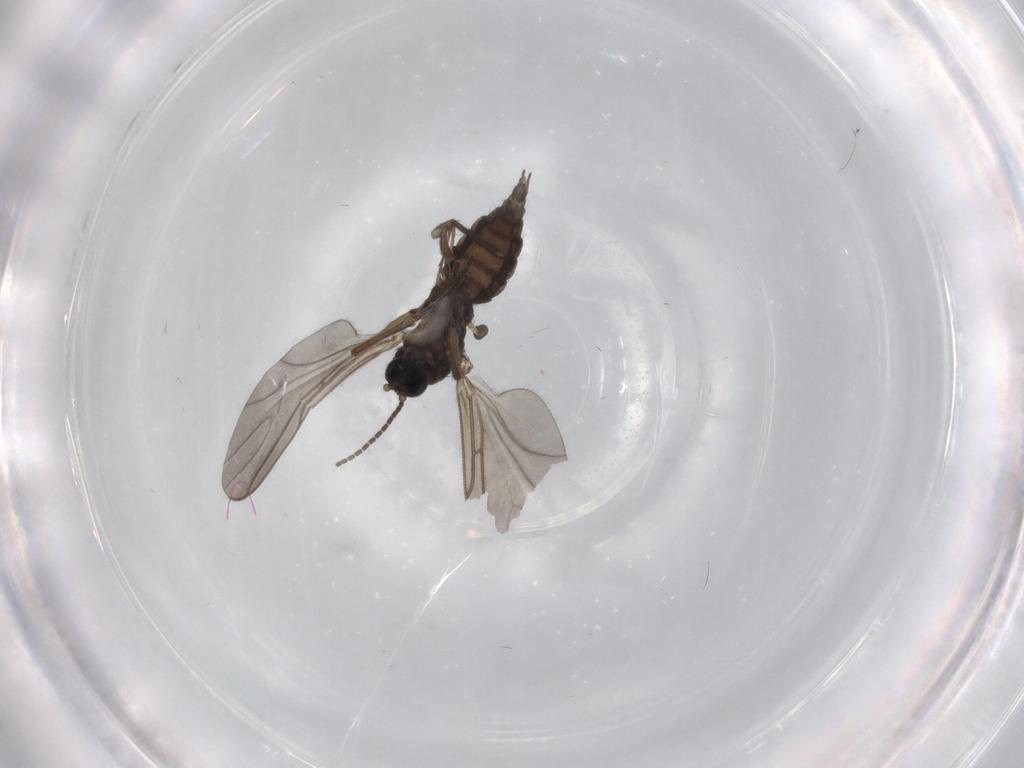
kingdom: Animalia
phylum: Arthropoda
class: Insecta
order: Diptera
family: Sciaridae
